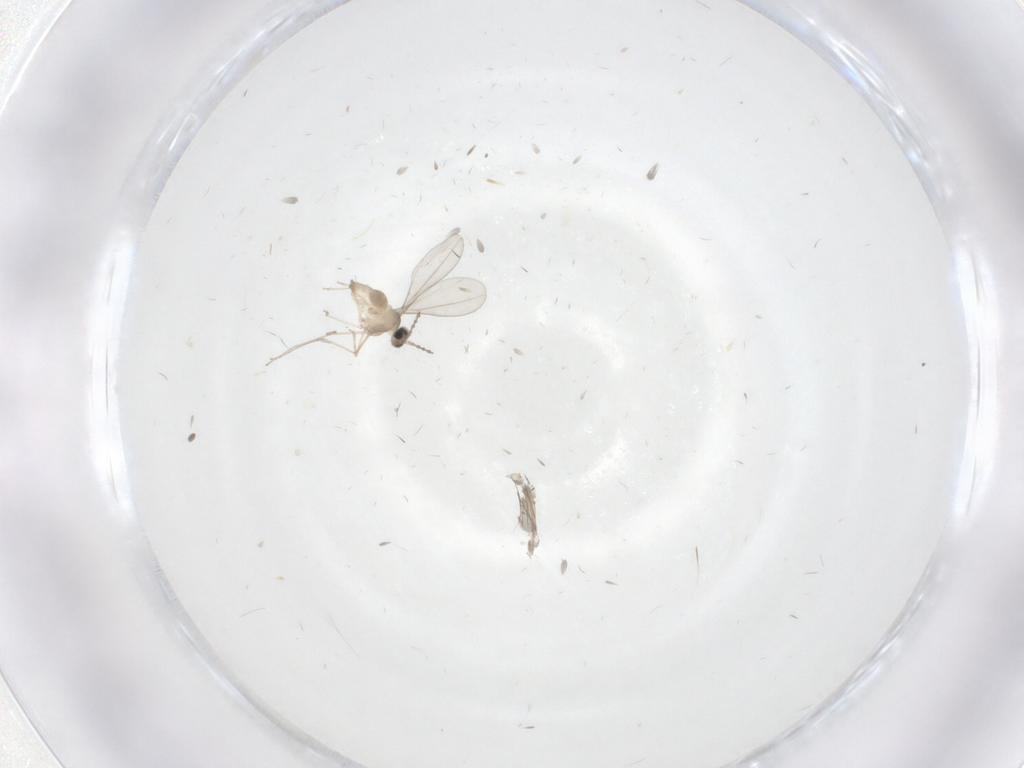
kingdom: Animalia
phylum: Arthropoda
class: Insecta
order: Diptera
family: Cecidomyiidae
